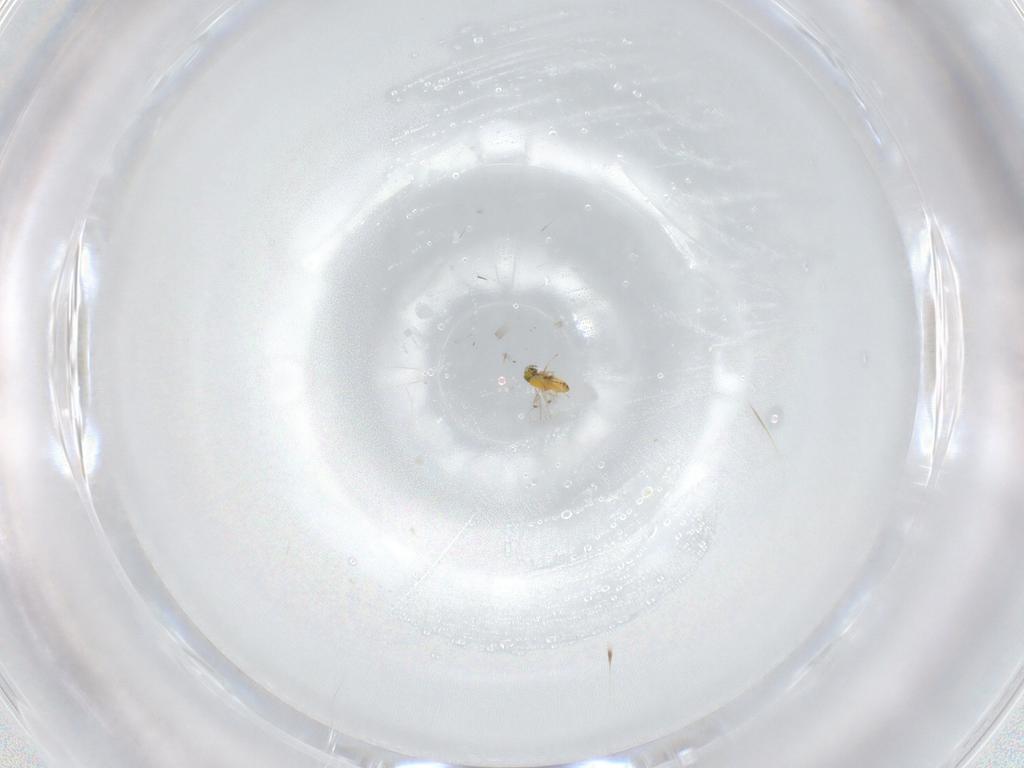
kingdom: Animalia
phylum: Arthropoda
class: Insecta
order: Hymenoptera
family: Trichogrammatidae
